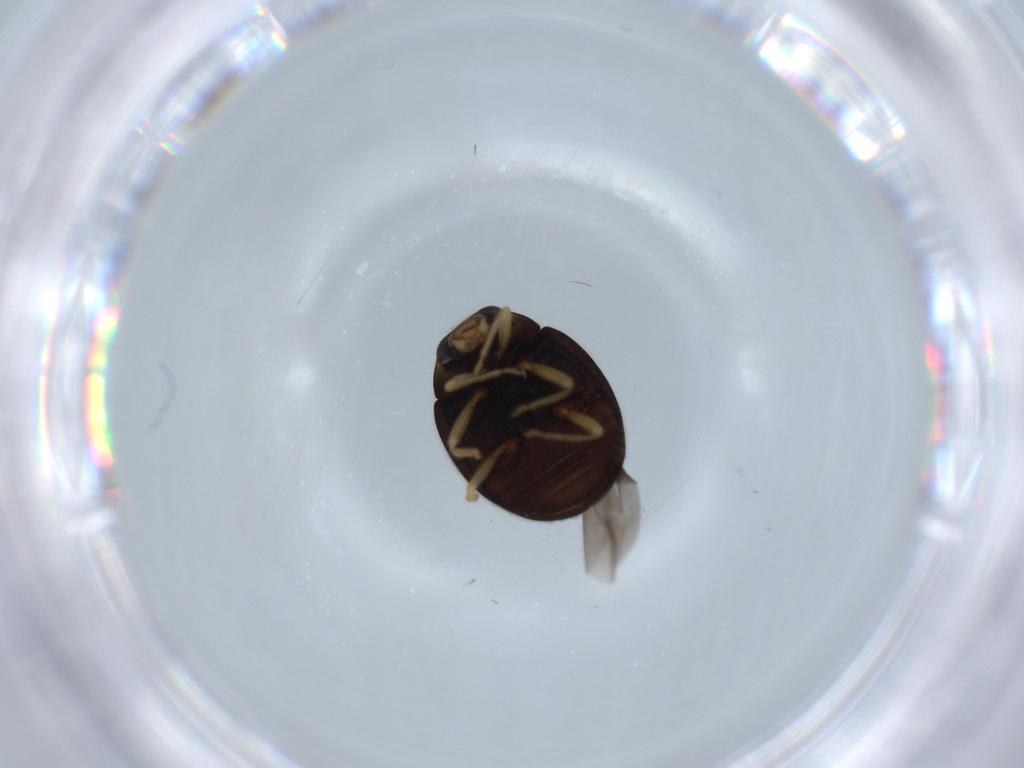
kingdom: Animalia
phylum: Arthropoda
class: Insecta
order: Coleoptera
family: Coccinellidae
